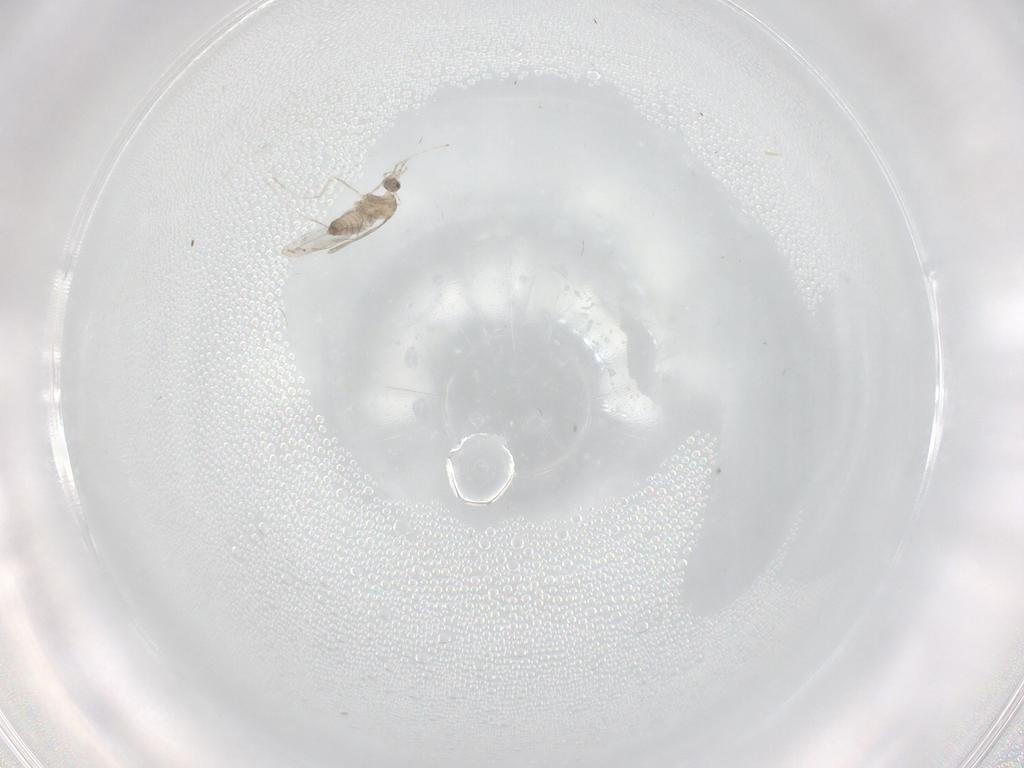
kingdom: Animalia
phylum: Arthropoda
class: Insecta
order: Diptera
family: Cecidomyiidae
